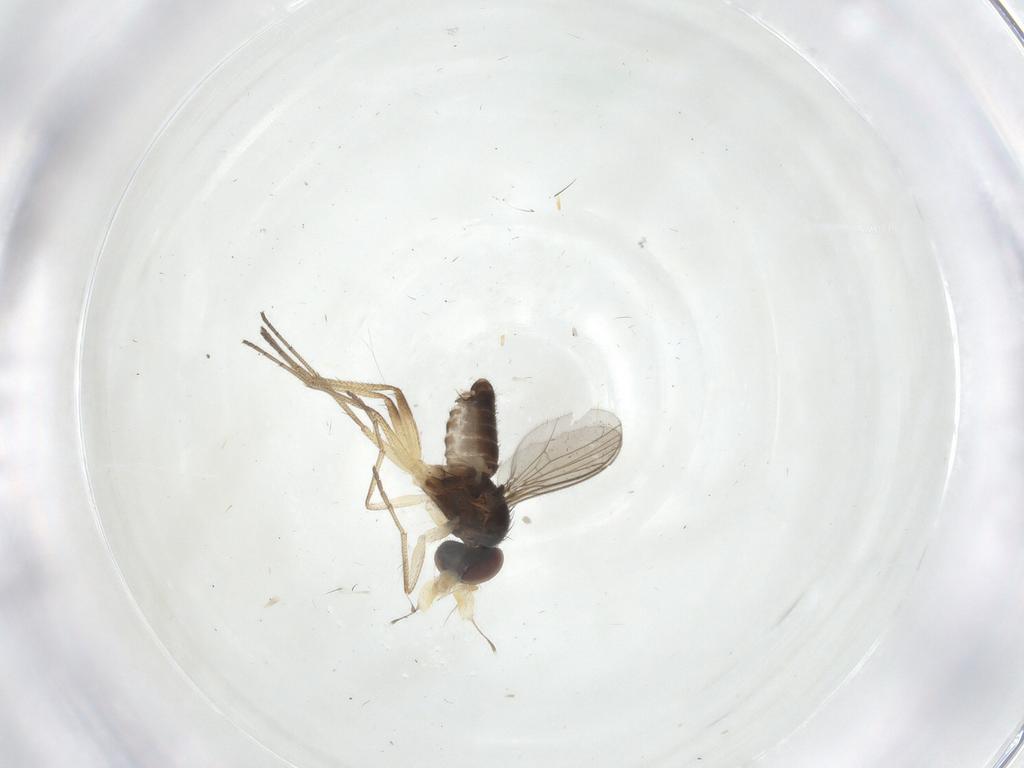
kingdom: Animalia
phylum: Arthropoda
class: Insecta
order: Diptera
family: Dolichopodidae
